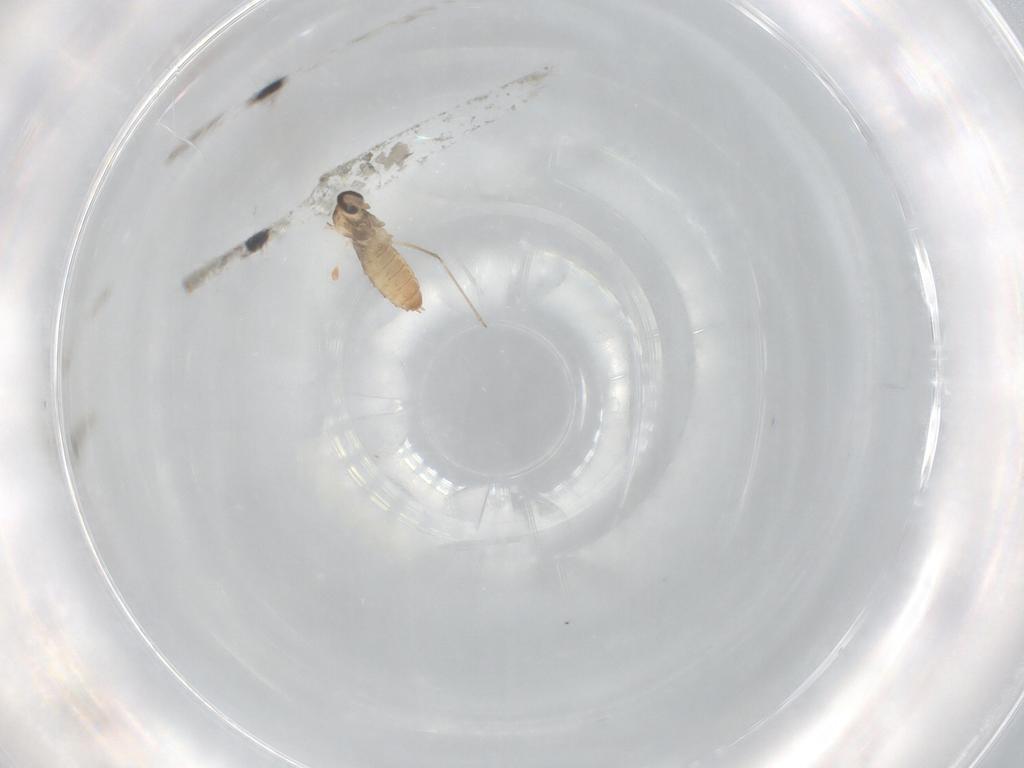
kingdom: Animalia
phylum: Arthropoda
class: Insecta
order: Diptera
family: Cecidomyiidae
